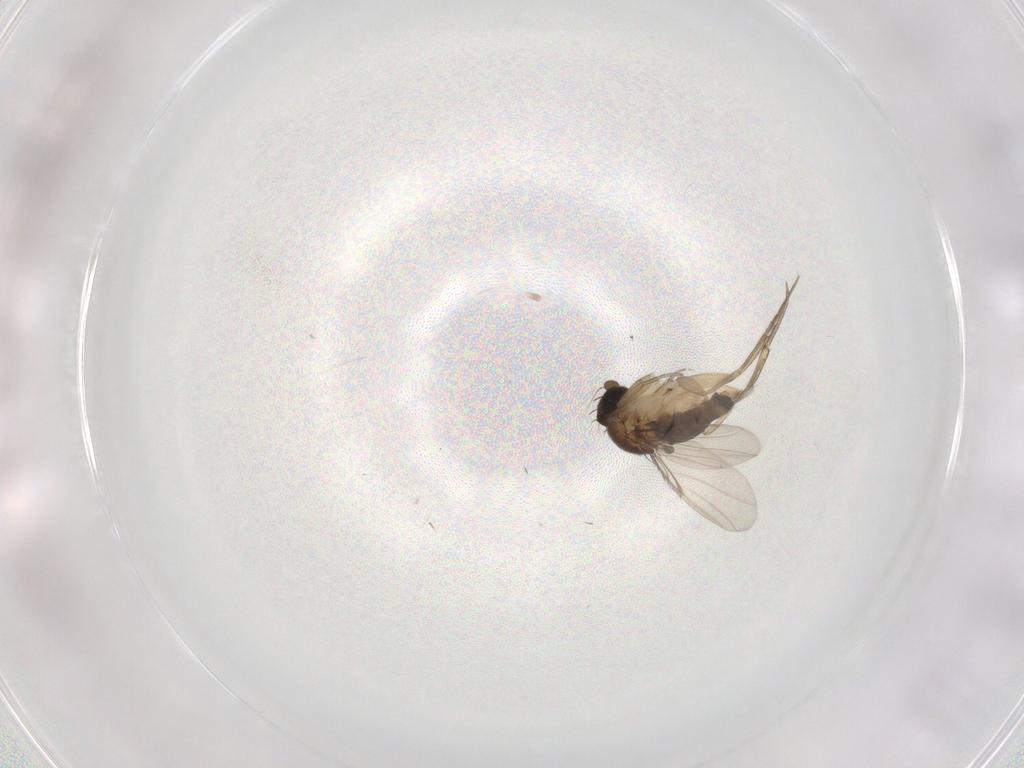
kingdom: Animalia
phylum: Arthropoda
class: Insecta
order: Diptera
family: Phoridae
